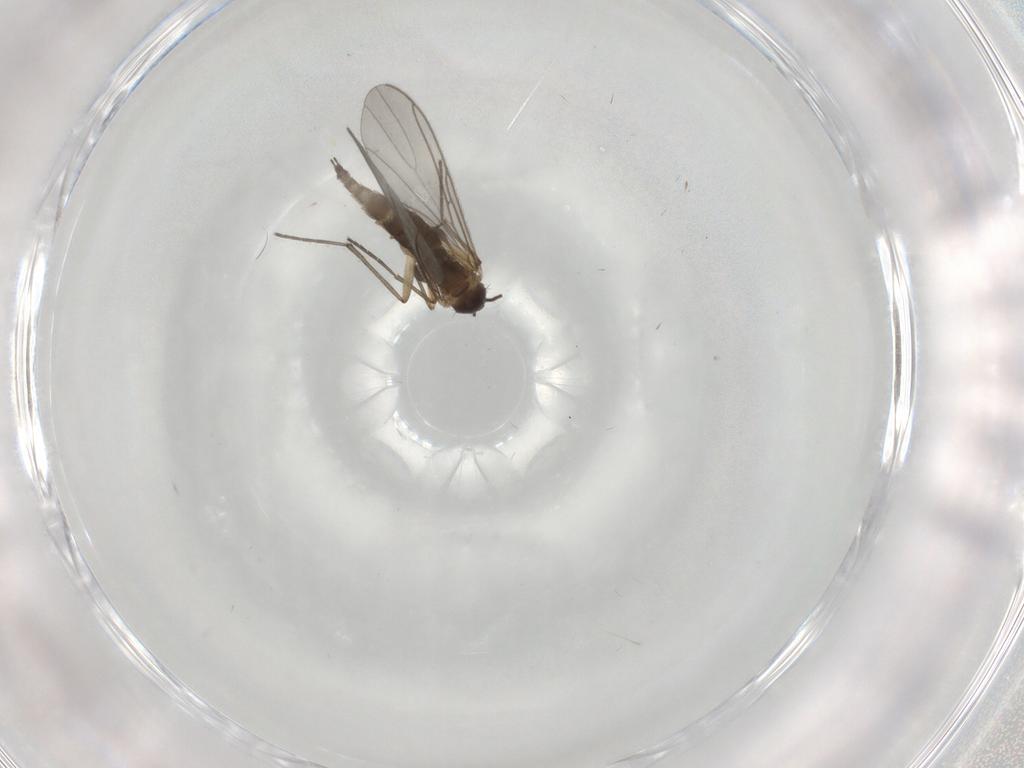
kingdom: Animalia
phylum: Arthropoda
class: Insecta
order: Diptera
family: Sciaridae
